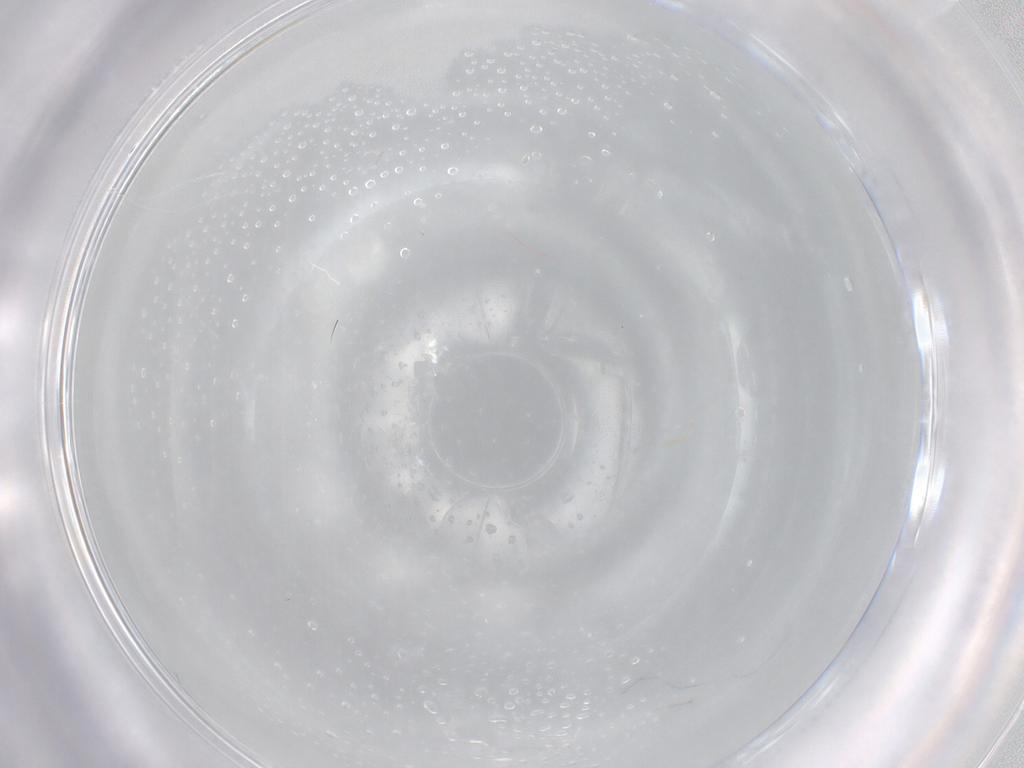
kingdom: Animalia
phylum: Arthropoda
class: Insecta
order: Diptera
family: Polleniidae
